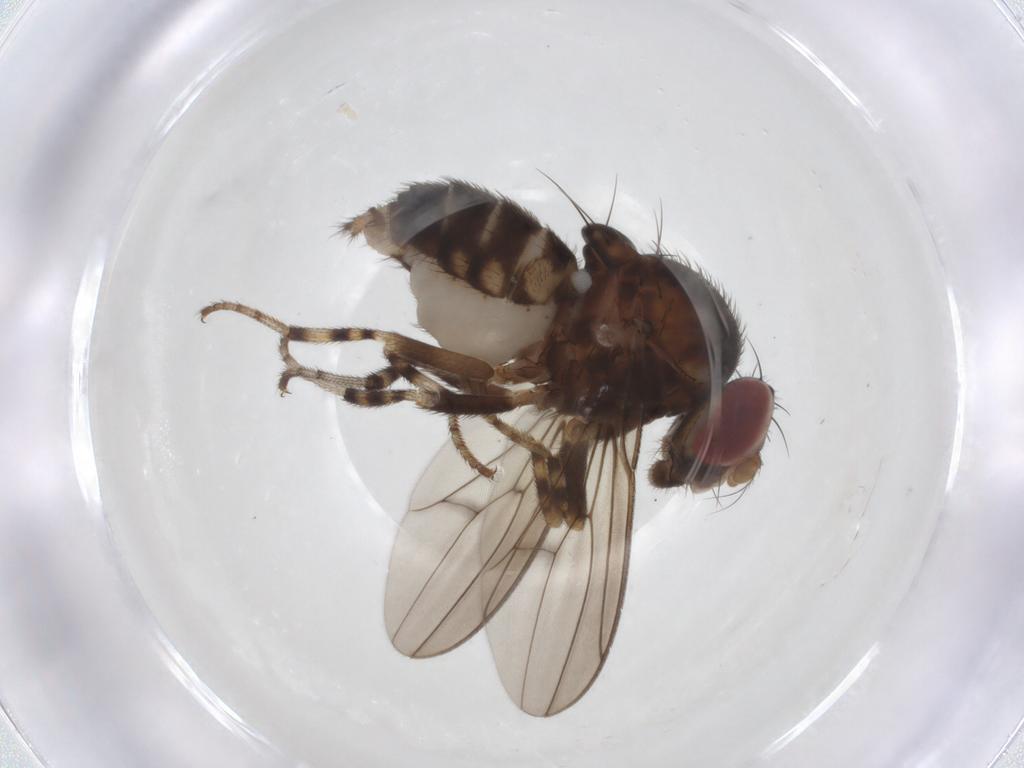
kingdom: Animalia
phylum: Arthropoda
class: Insecta
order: Diptera
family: Drosophilidae
